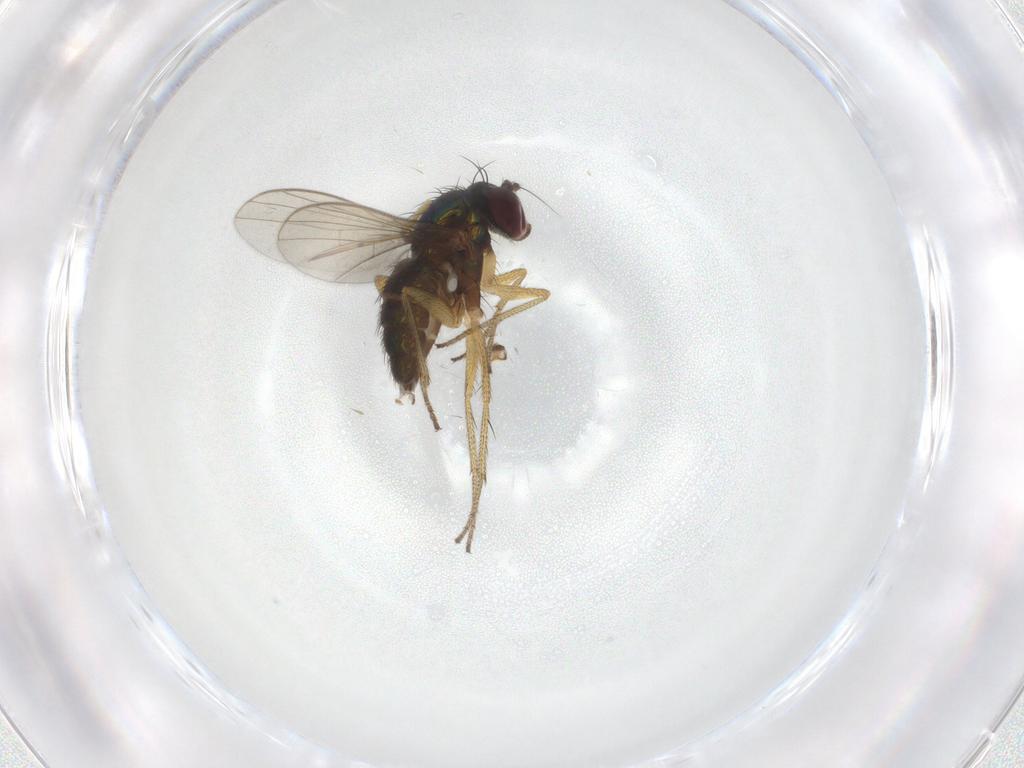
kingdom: Animalia
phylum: Arthropoda
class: Insecta
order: Diptera
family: Dolichopodidae
